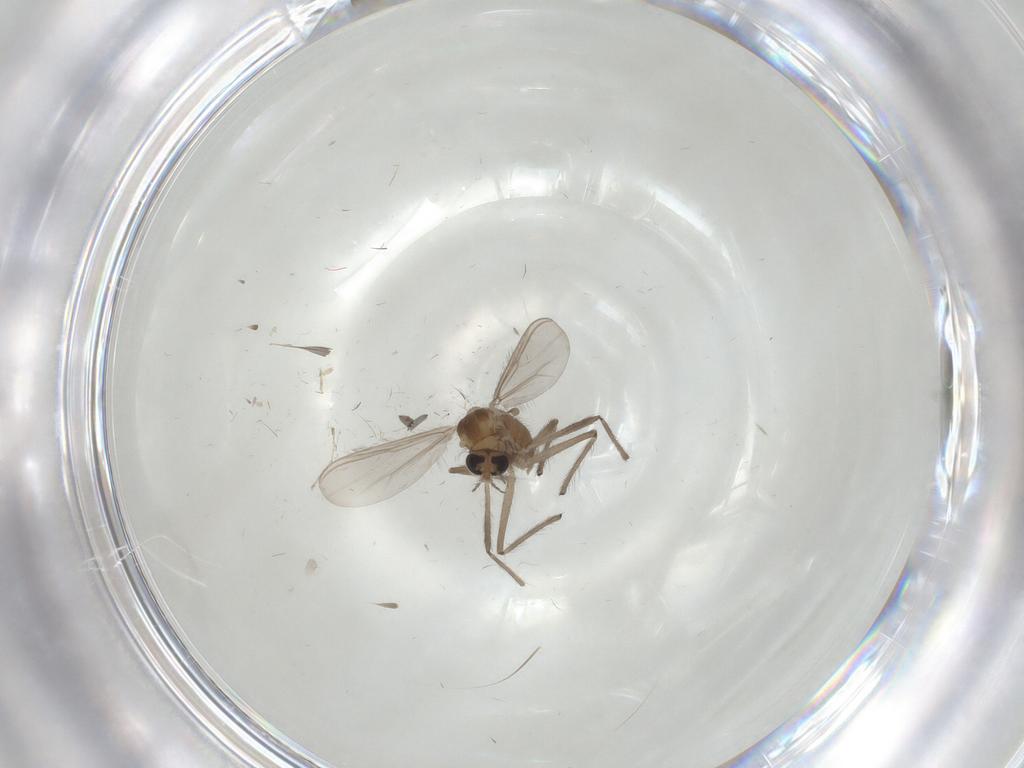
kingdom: Animalia
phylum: Arthropoda
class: Insecta
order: Diptera
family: Chironomidae
